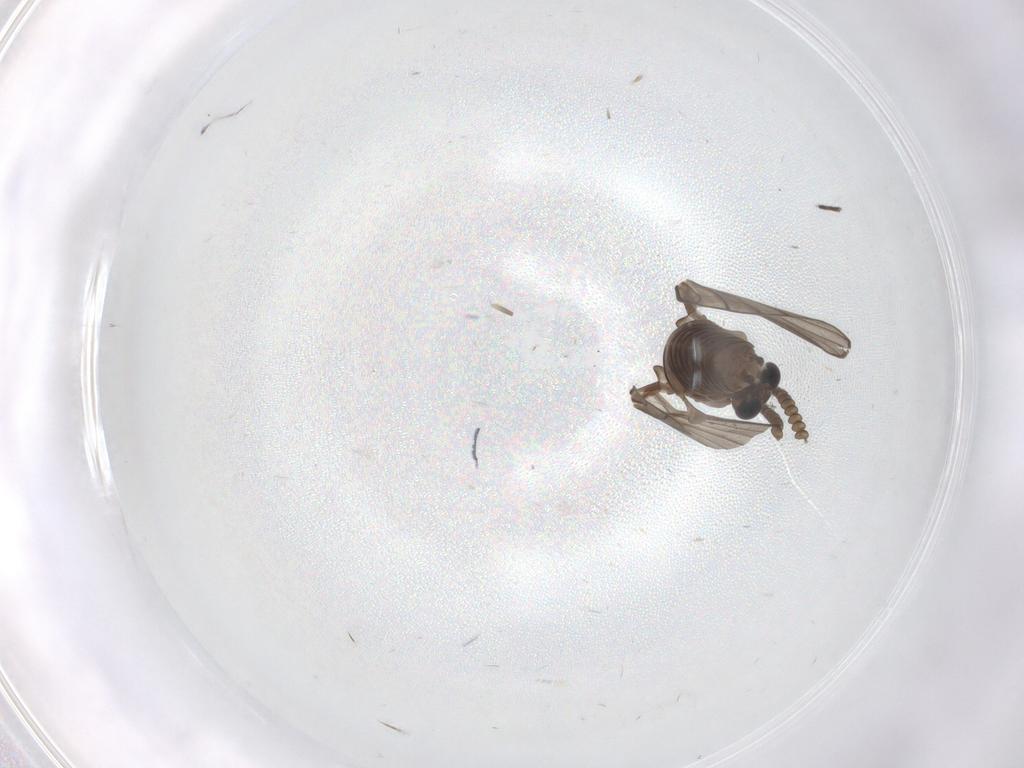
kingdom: Animalia
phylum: Arthropoda
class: Insecta
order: Diptera
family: Psychodidae
